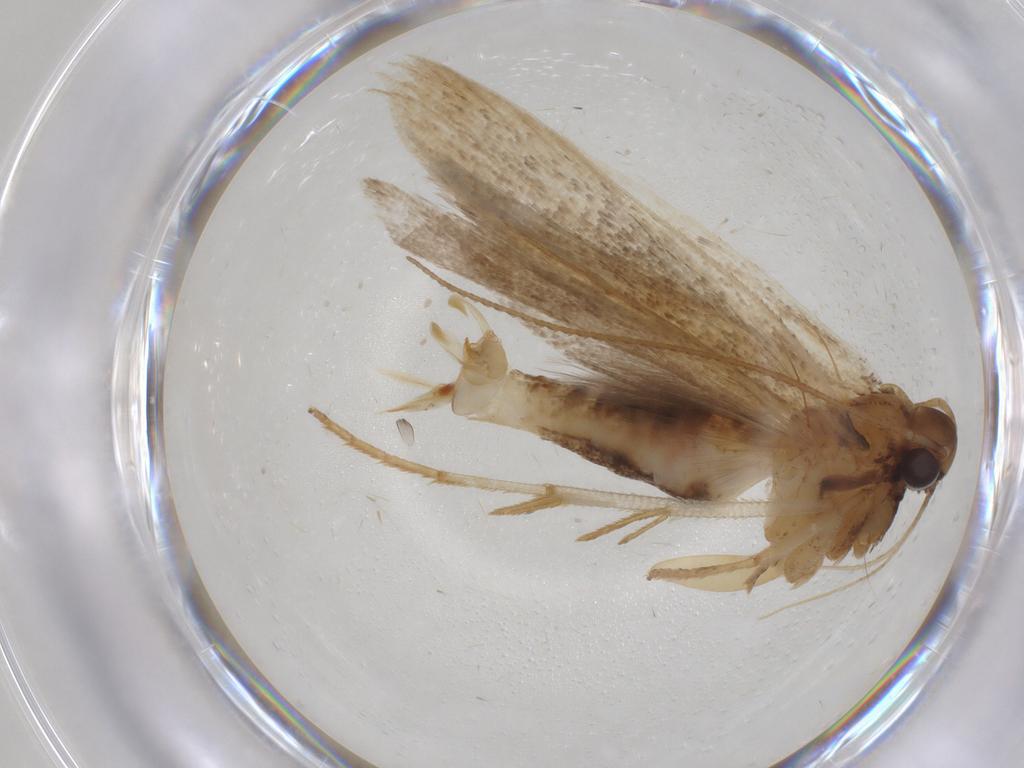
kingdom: Animalia
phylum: Arthropoda
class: Insecta
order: Lepidoptera
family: Gelechiidae
